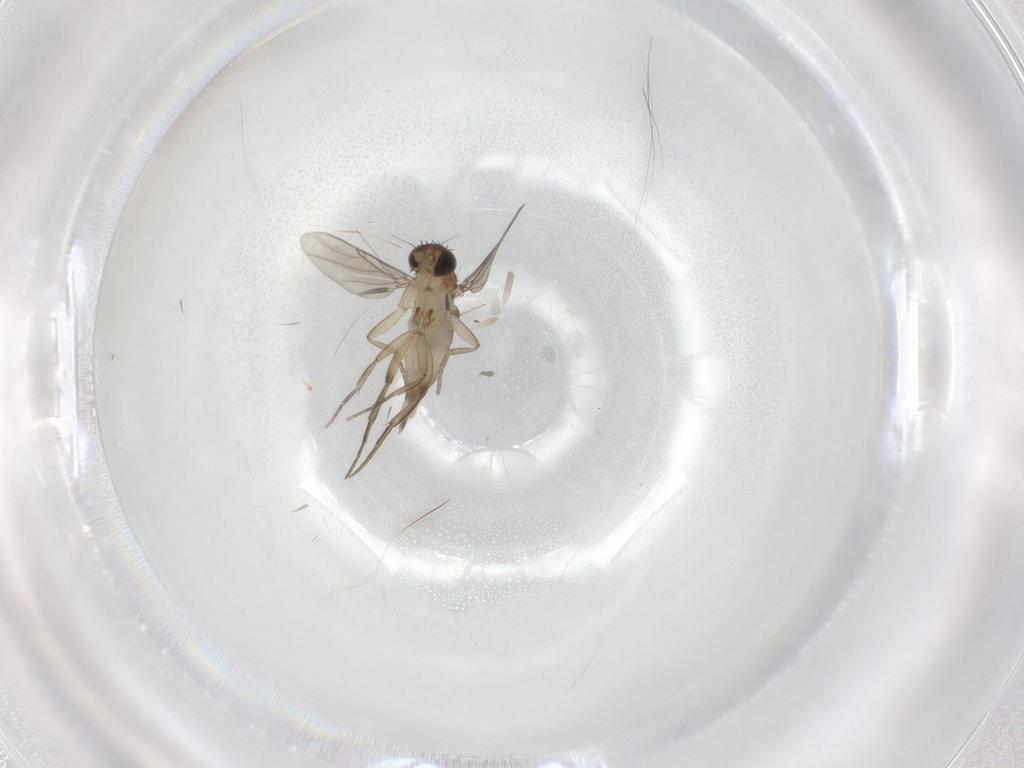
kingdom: Animalia
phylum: Arthropoda
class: Insecta
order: Diptera
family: Phoridae
